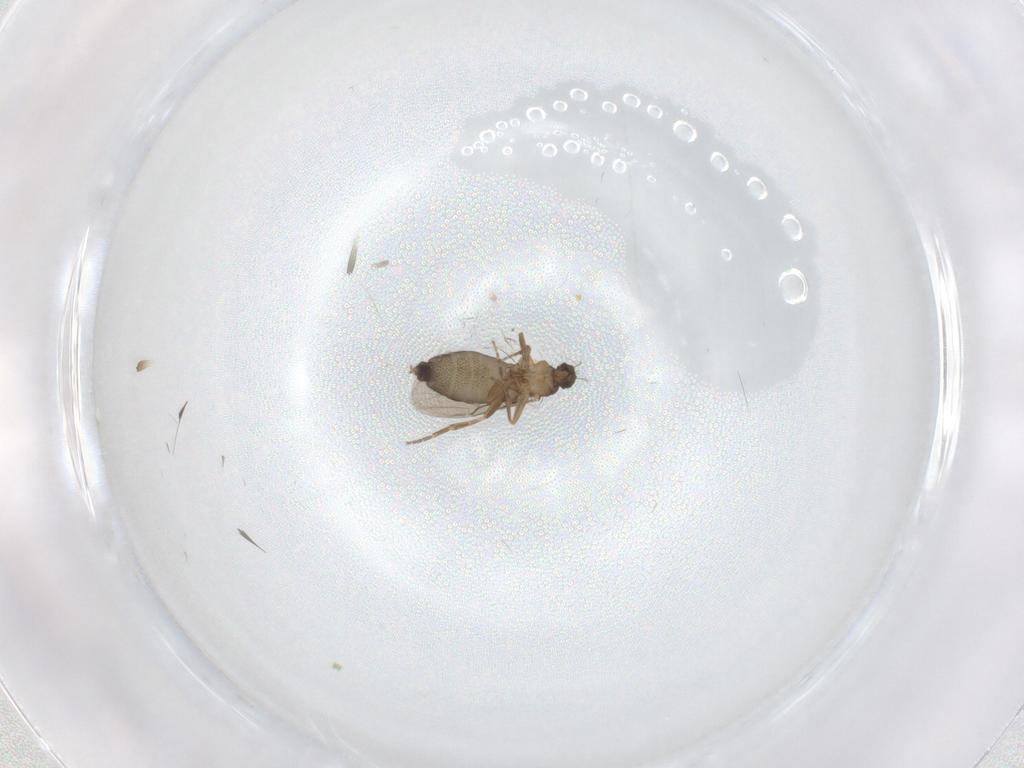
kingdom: Animalia
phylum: Arthropoda
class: Insecta
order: Diptera
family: Phoridae
